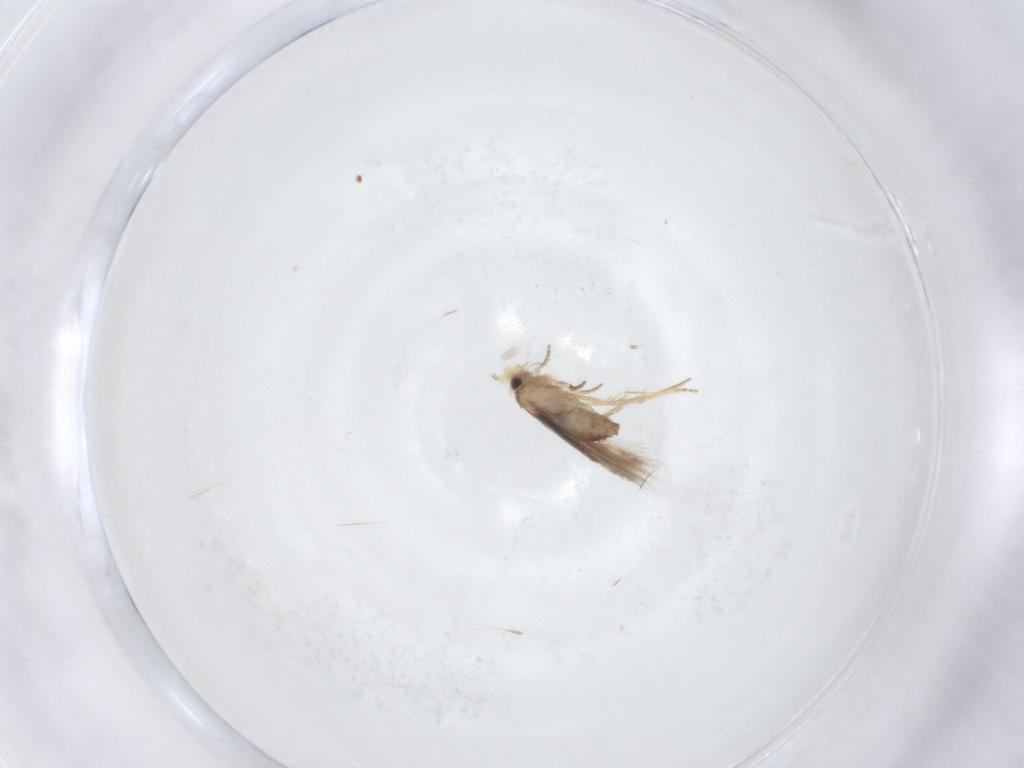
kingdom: Animalia
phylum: Arthropoda
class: Insecta
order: Lepidoptera
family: Nepticulidae
